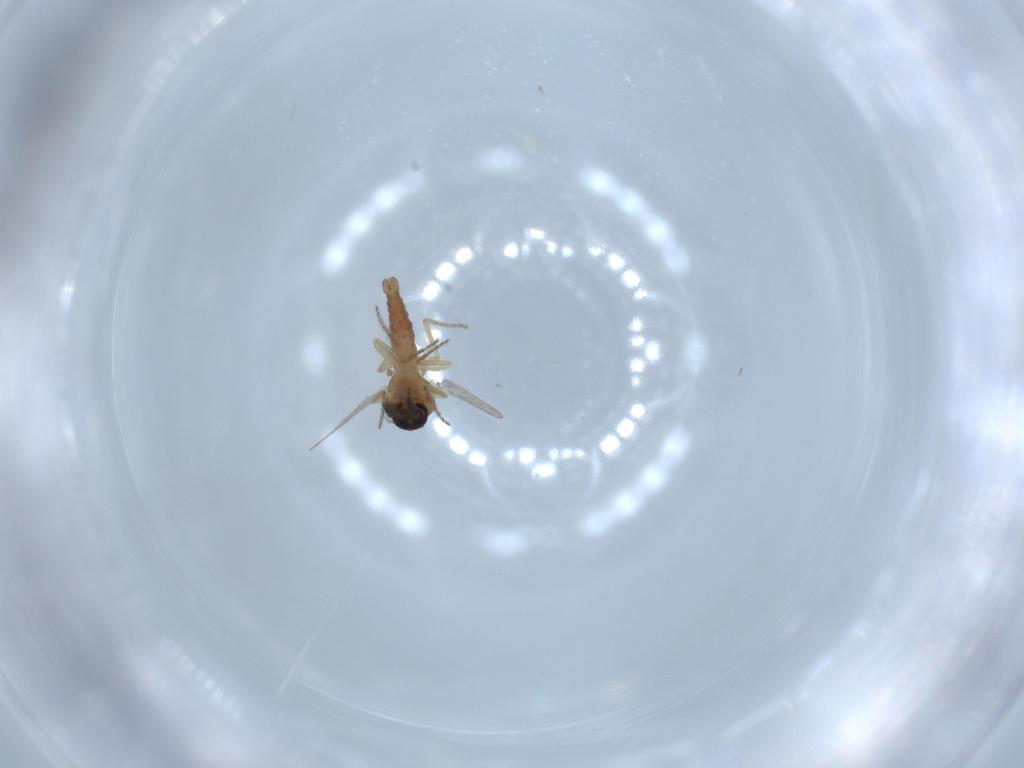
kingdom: Animalia
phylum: Arthropoda
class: Insecta
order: Diptera
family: Ceratopogonidae
